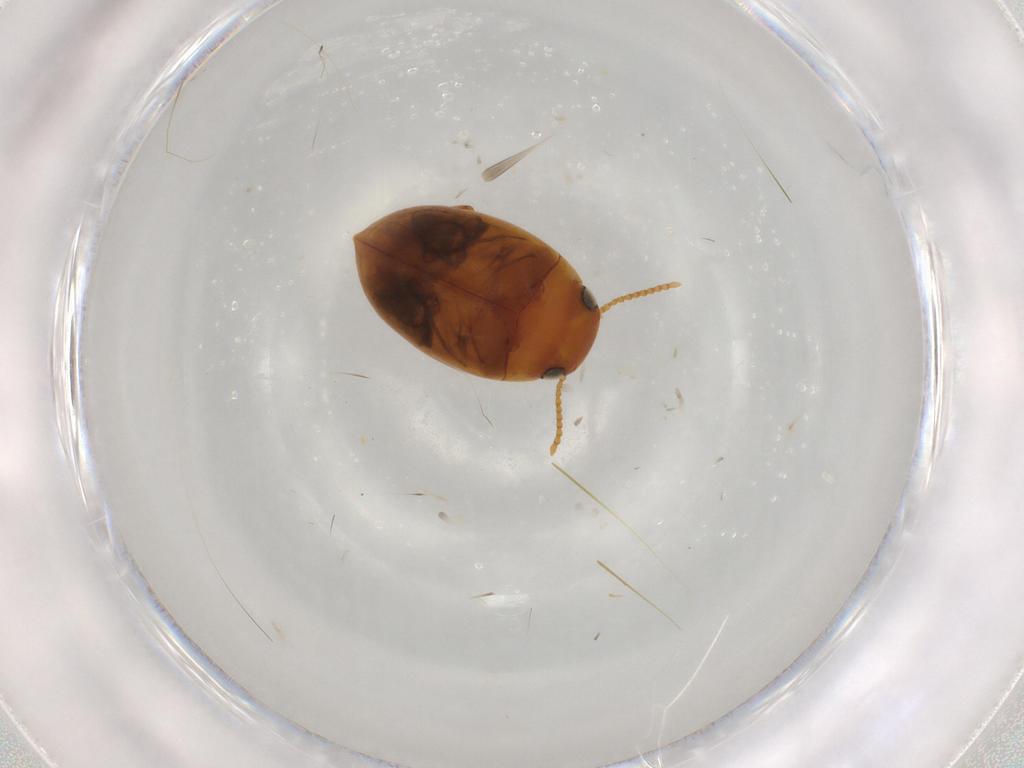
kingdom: Animalia
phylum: Arthropoda
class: Insecta
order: Coleoptera
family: Dytiscidae
